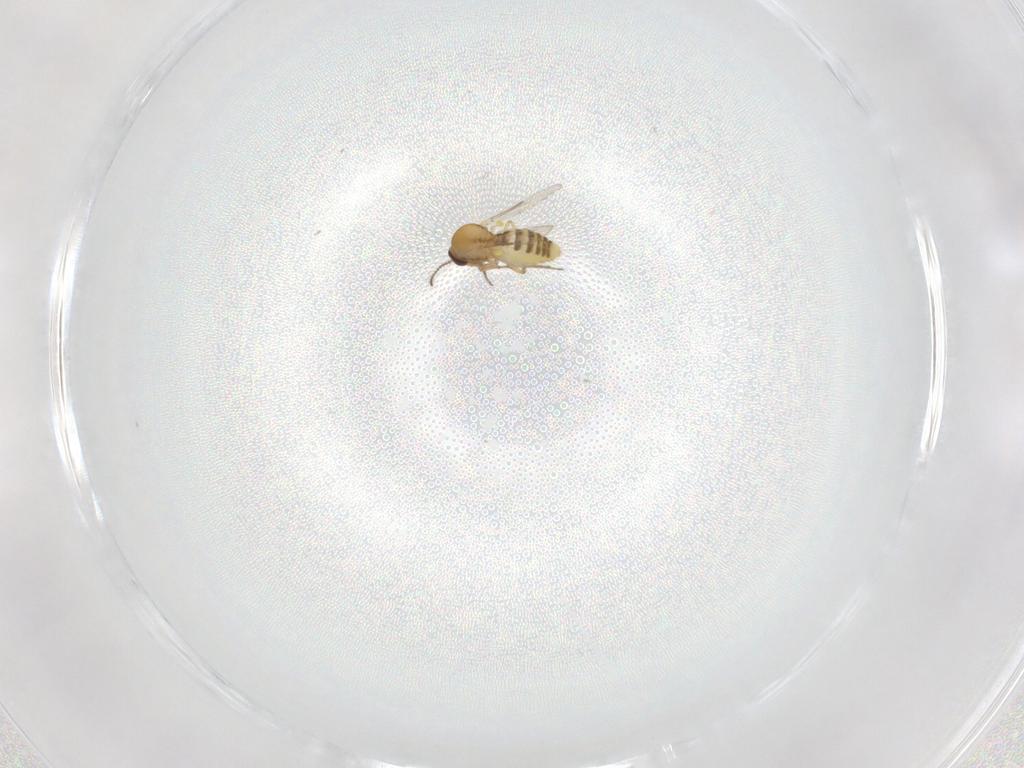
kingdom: Animalia
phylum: Arthropoda
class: Insecta
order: Diptera
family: Ceratopogonidae
